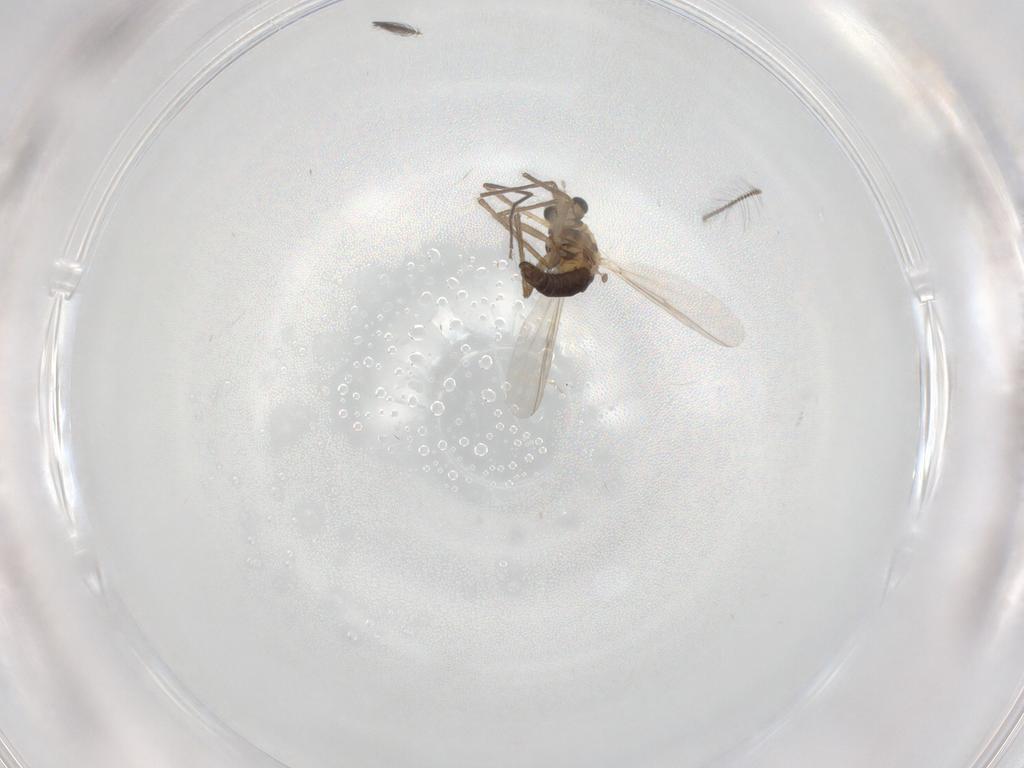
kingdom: Animalia
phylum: Arthropoda
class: Insecta
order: Diptera
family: Chironomidae
